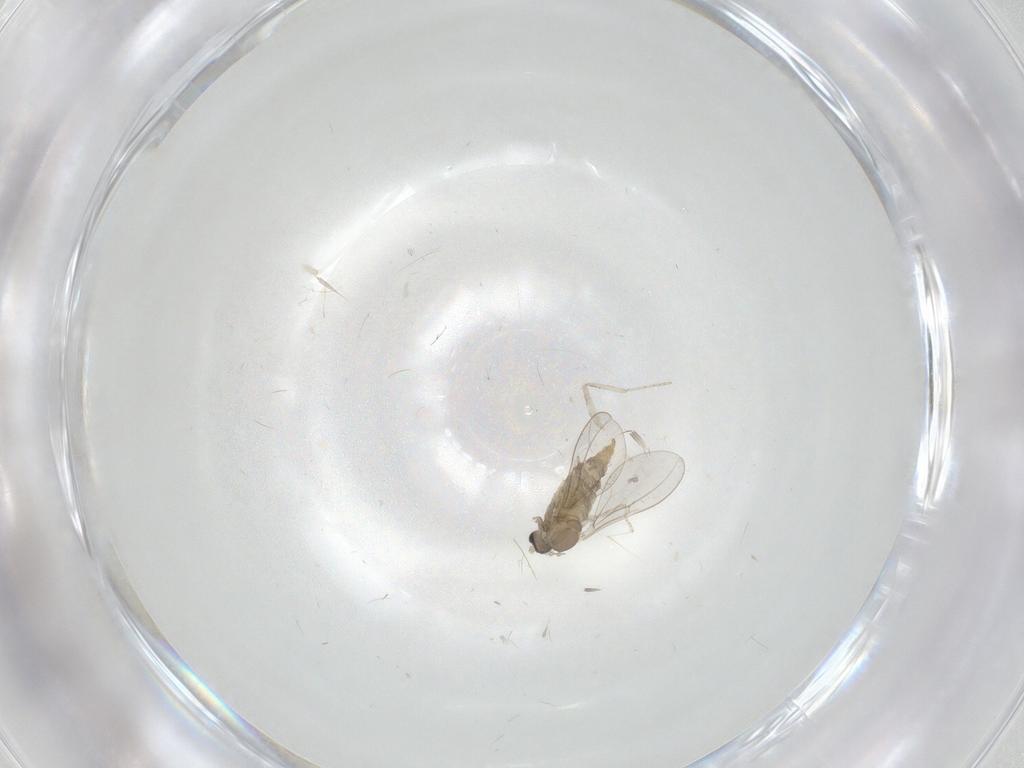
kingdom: Animalia
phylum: Arthropoda
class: Insecta
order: Diptera
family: Cecidomyiidae
